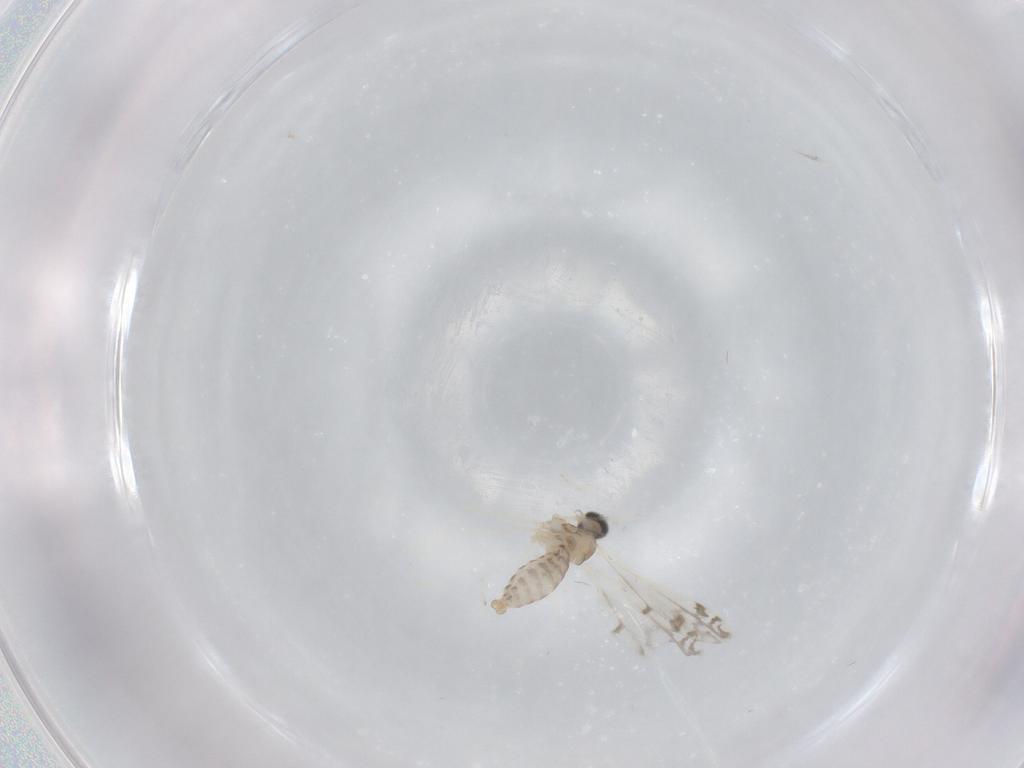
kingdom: Animalia
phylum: Arthropoda
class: Insecta
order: Diptera
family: Cecidomyiidae
